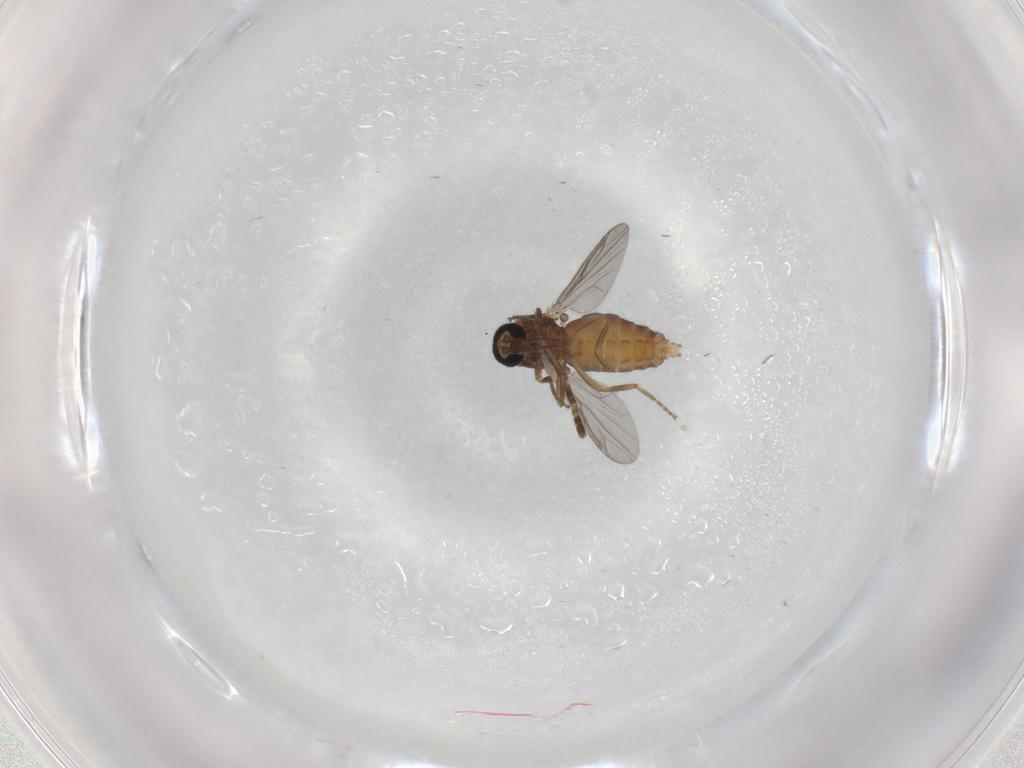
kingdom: Animalia
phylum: Arthropoda
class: Insecta
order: Diptera
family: Ceratopogonidae
